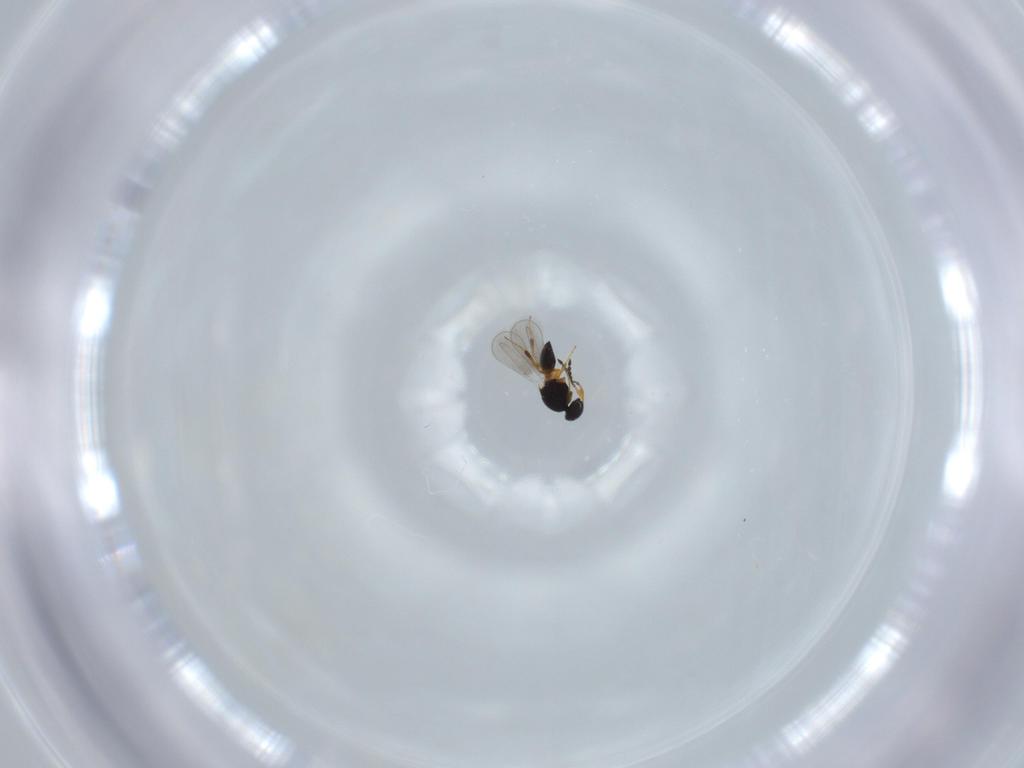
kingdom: Animalia
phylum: Arthropoda
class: Insecta
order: Hymenoptera
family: Platygastridae
